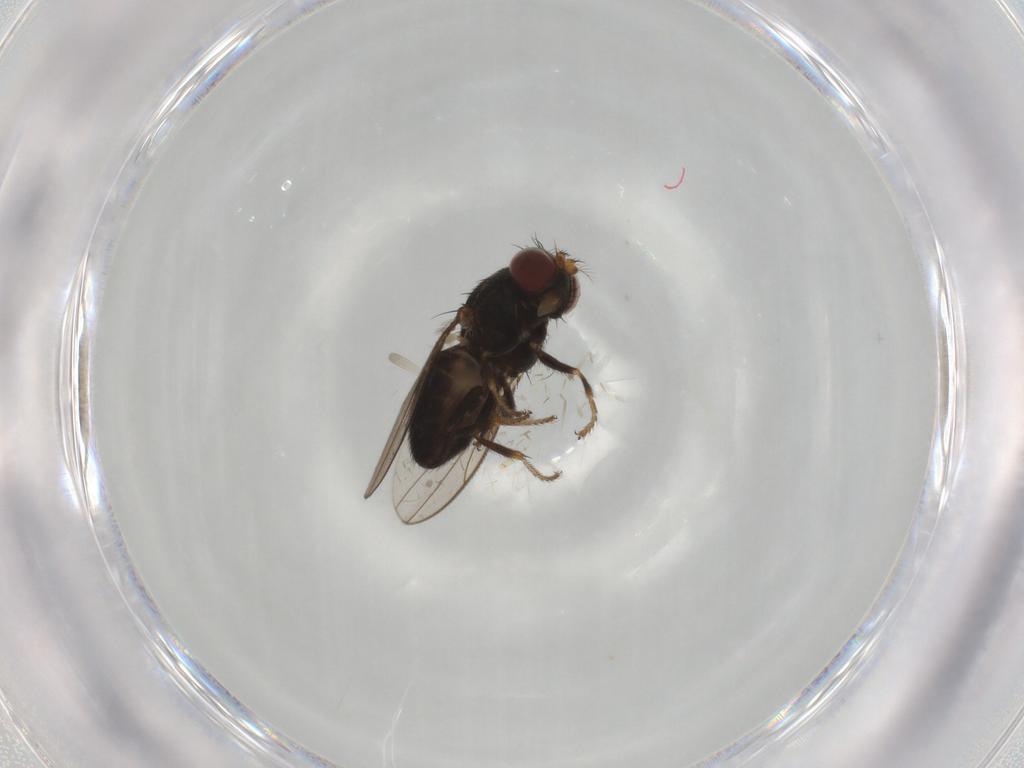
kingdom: Animalia
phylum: Arthropoda
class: Insecta
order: Diptera
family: Ephydridae
